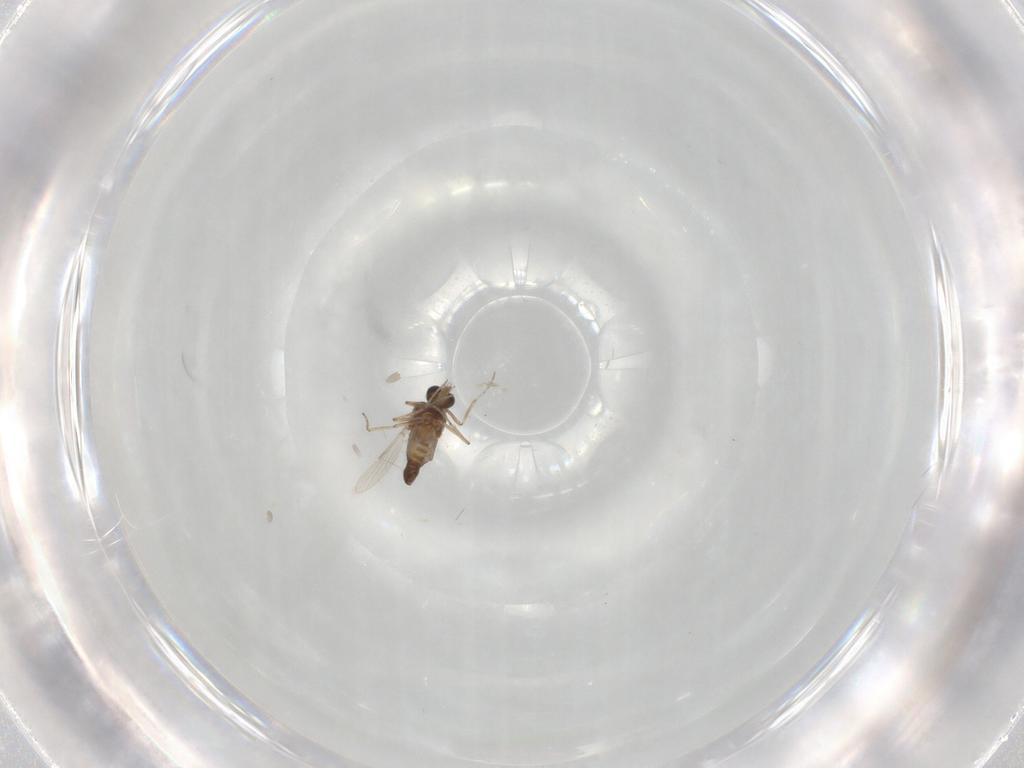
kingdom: Animalia
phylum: Arthropoda
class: Insecta
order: Diptera
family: Ceratopogonidae
